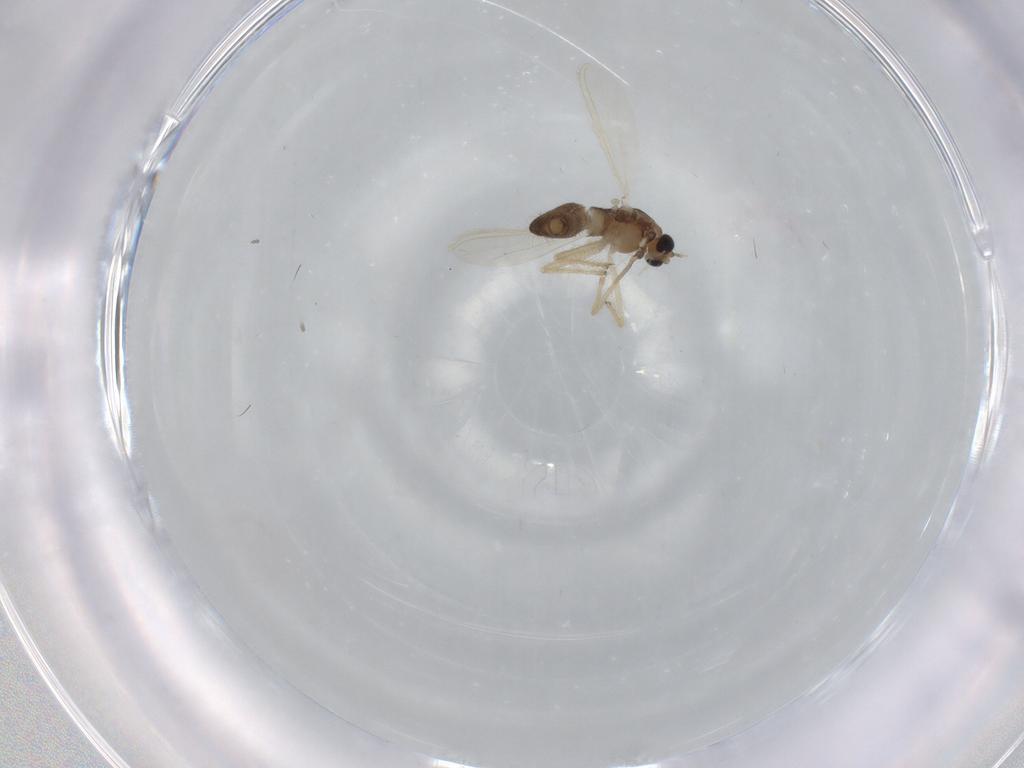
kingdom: Animalia
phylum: Arthropoda
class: Insecta
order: Diptera
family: Chironomidae
